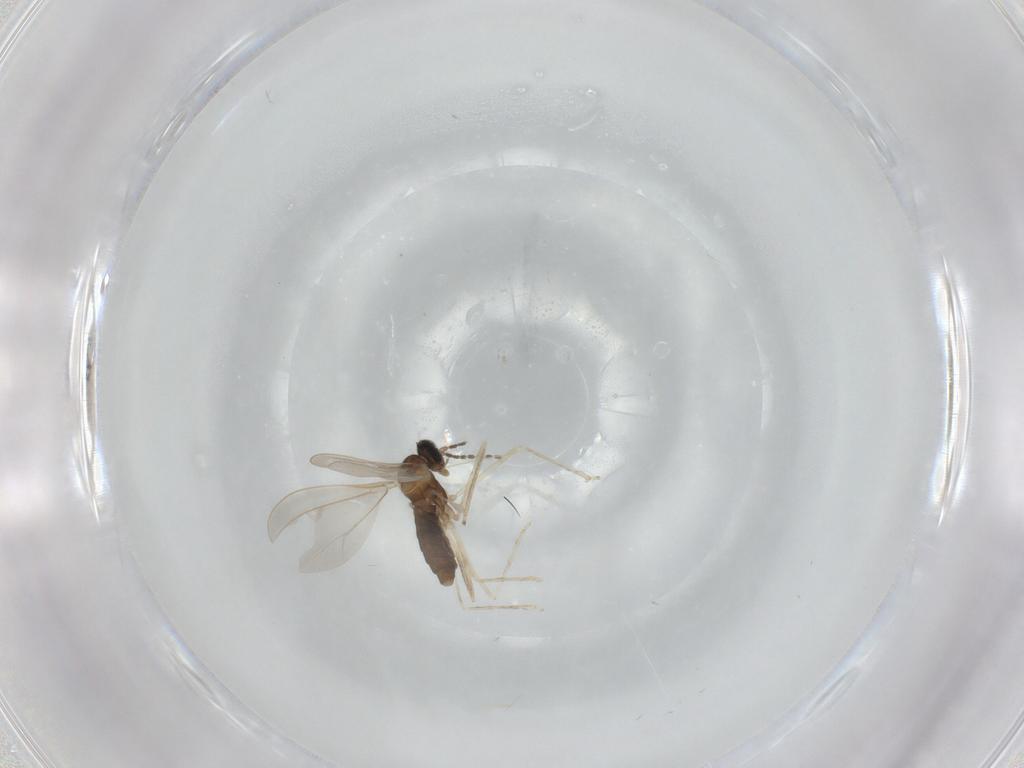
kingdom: Animalia
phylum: Arthropoda
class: Insecta
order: Diptera
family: Cecidomyiidae
